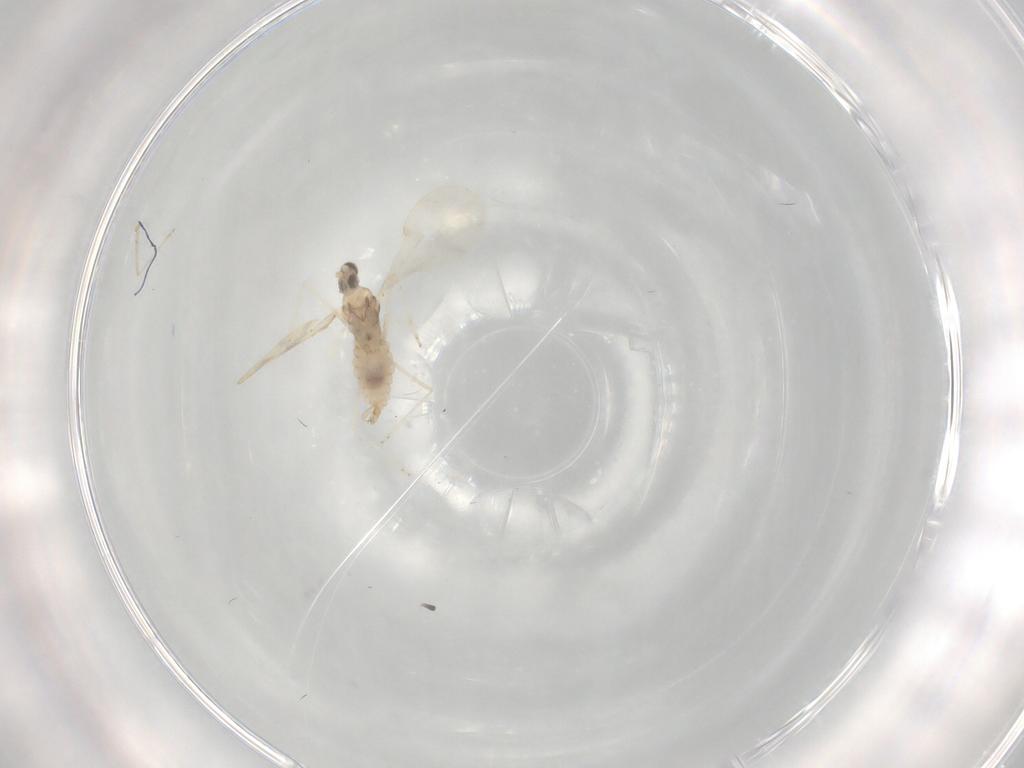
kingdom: Animalia
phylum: Arthropoda
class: Insecta
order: Diptera
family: Cecidomyiidae
